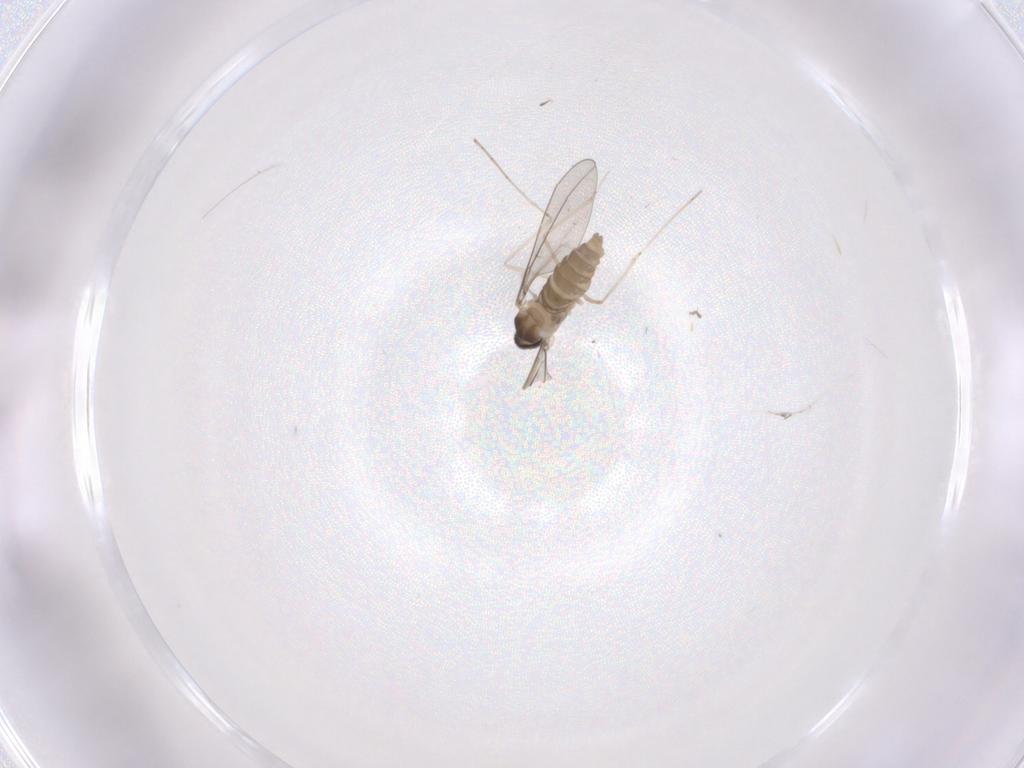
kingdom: Animalia
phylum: Arthropoda
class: Insecta
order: Diptera
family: Cecidomyiidae
